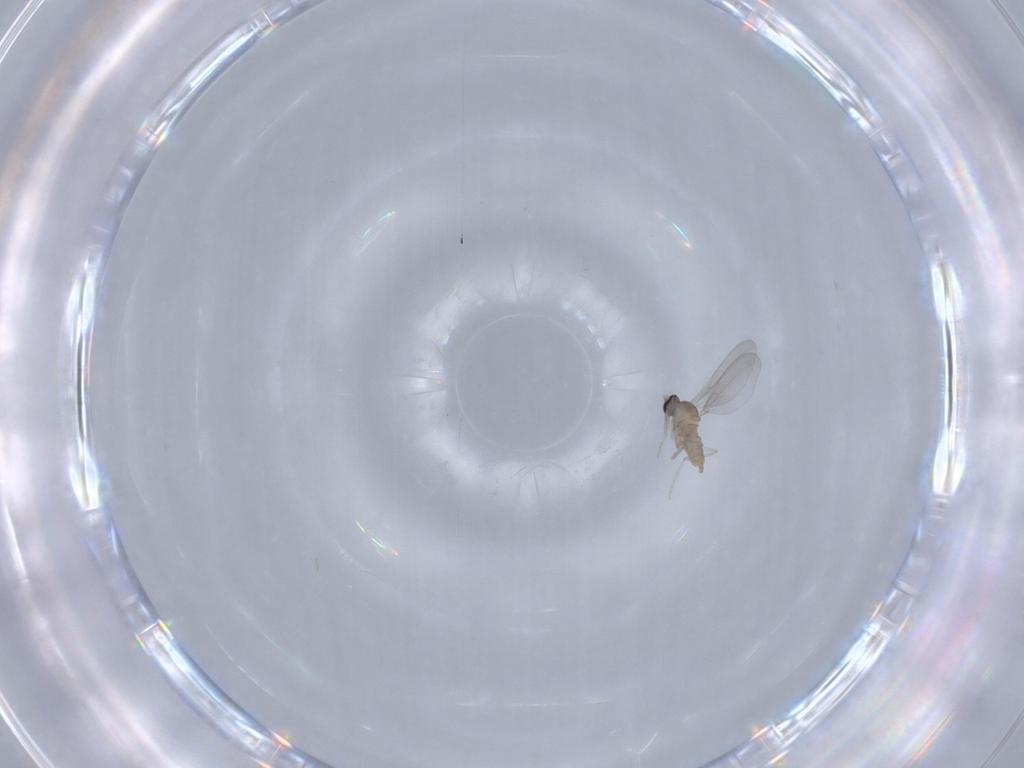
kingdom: Animalia
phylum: Arthropoda
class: Insecta
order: Diptera
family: Cecidomyiidae
